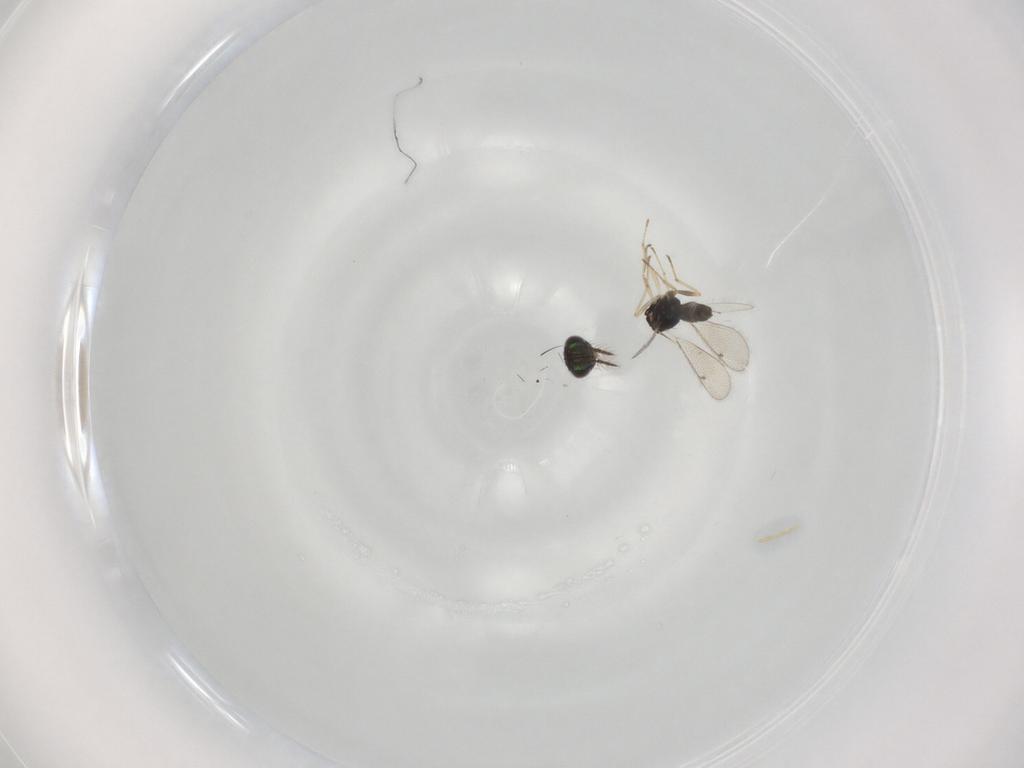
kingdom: Animalia
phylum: Arthropoda
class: Insecta
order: Hymenoptera
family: Eulophidae
